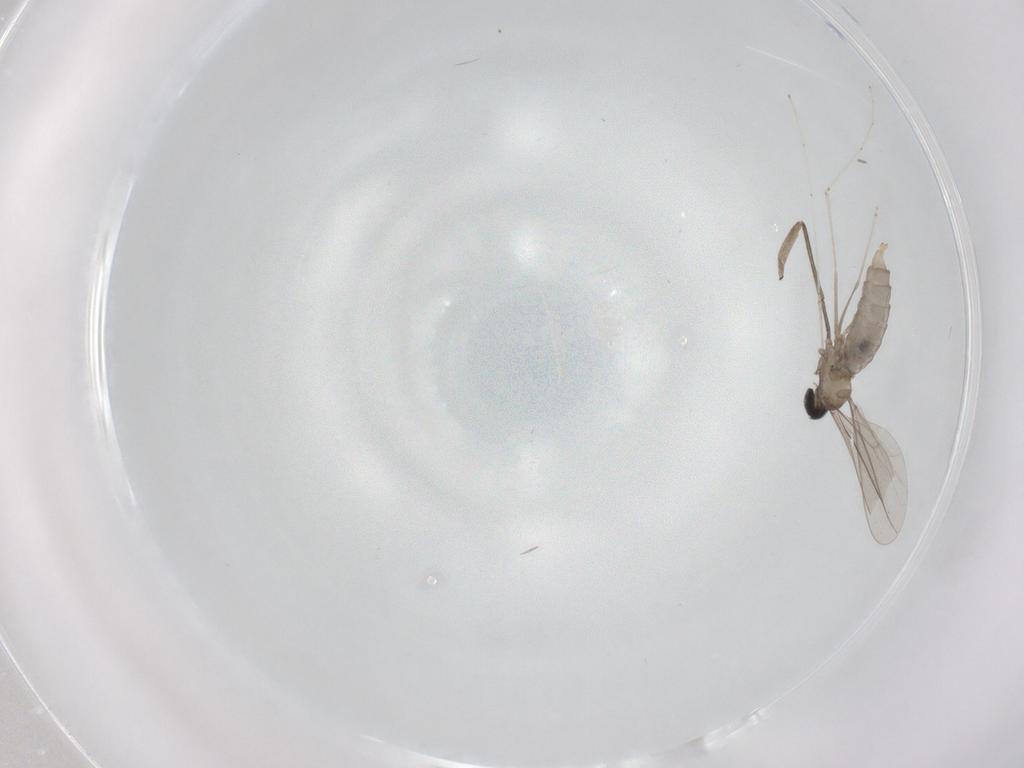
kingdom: Animalia
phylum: Arthropoda
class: Insecta
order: Diptera
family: Cecidomyiidae
